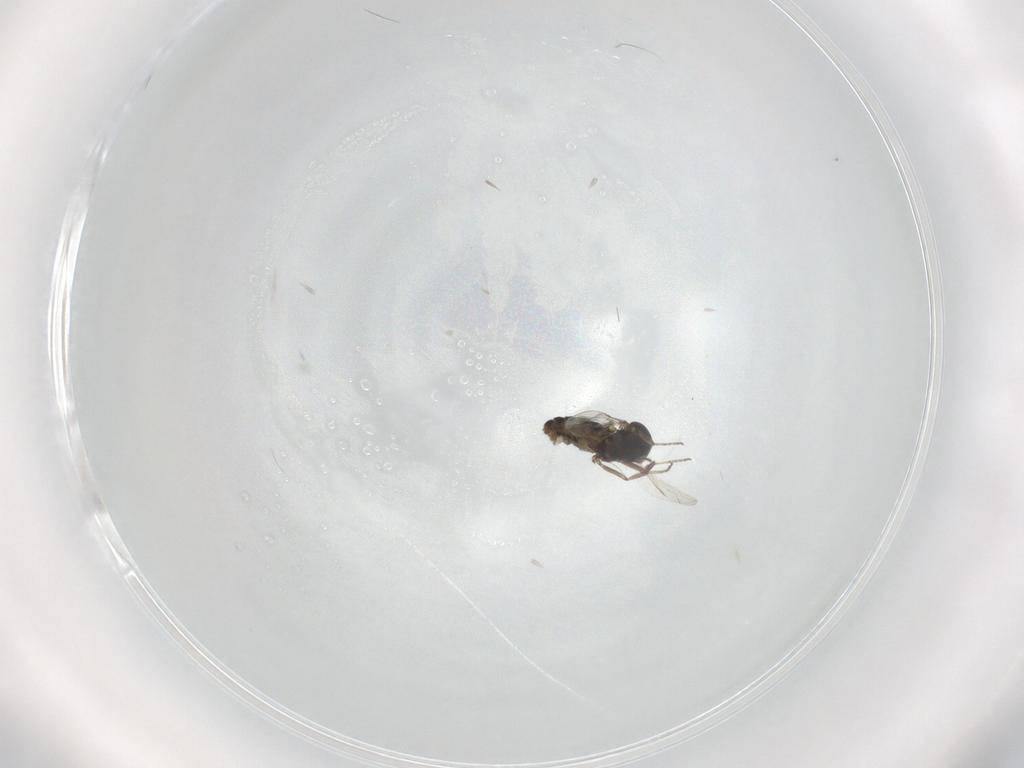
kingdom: Animalia
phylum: Arthropoda
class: Insecta
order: Diptera
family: Ceratopogonidae
